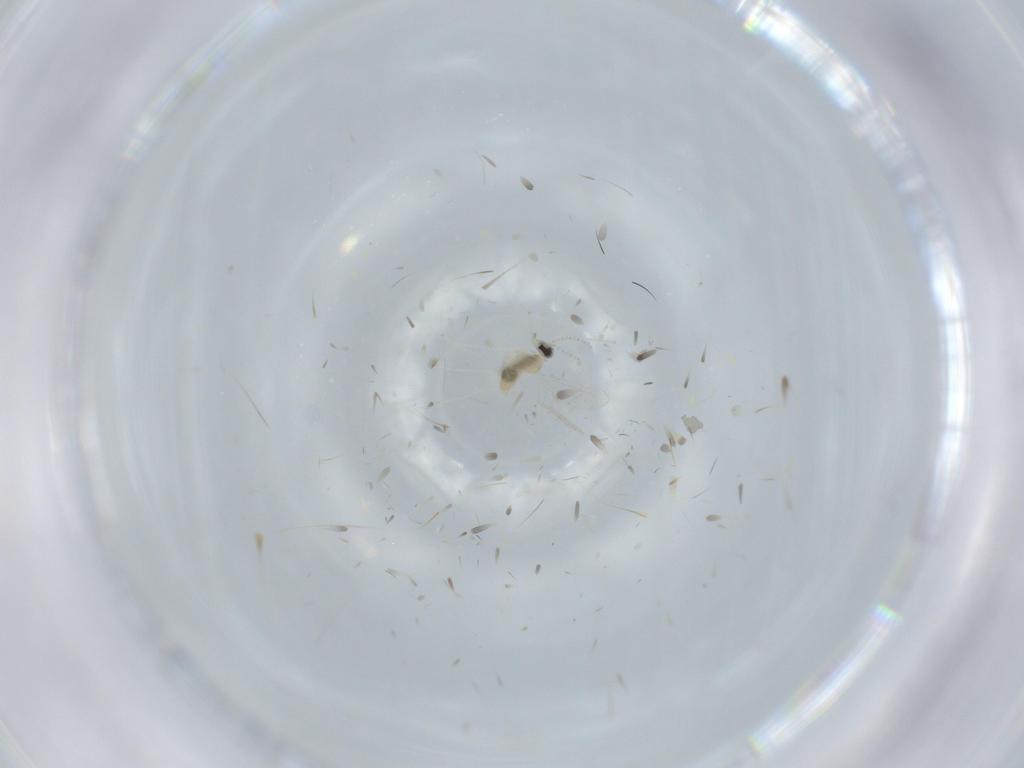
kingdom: Animalia
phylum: Arthropoda
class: Insecta
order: Diptera
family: Cecidomyiidae
